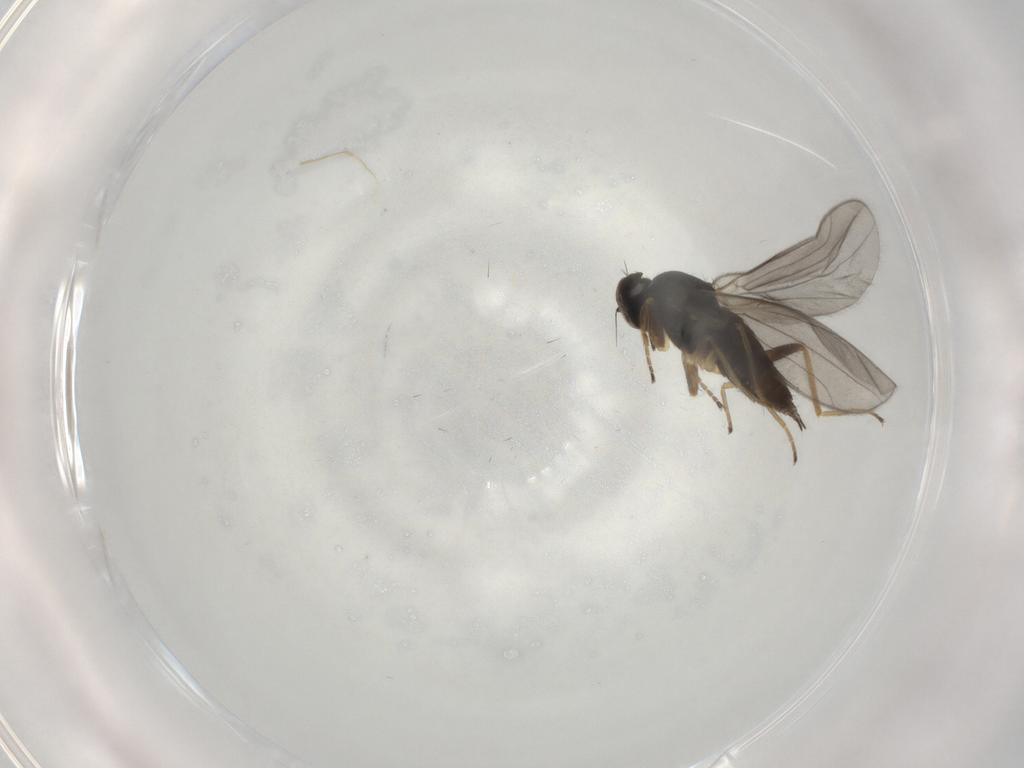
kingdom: Animalia
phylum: Arthropoda
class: Insecta
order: Diptera
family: Hybotidae
